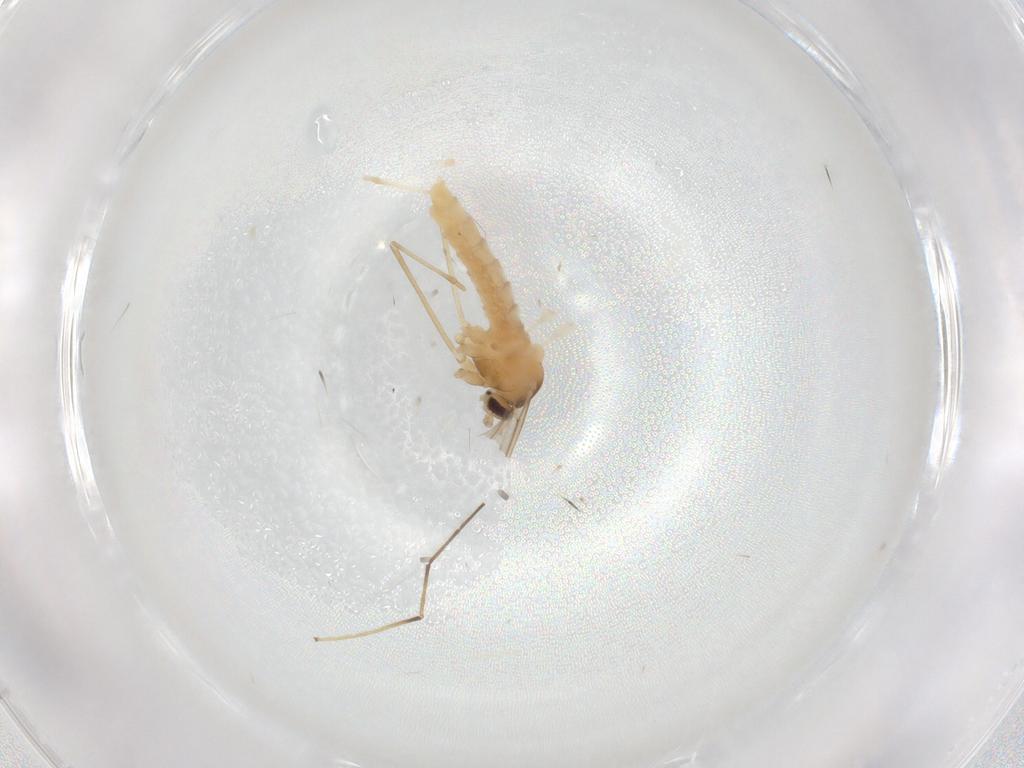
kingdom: Animalia
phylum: Arthropoda
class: Insecta
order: Diptera
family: Chironomidae
